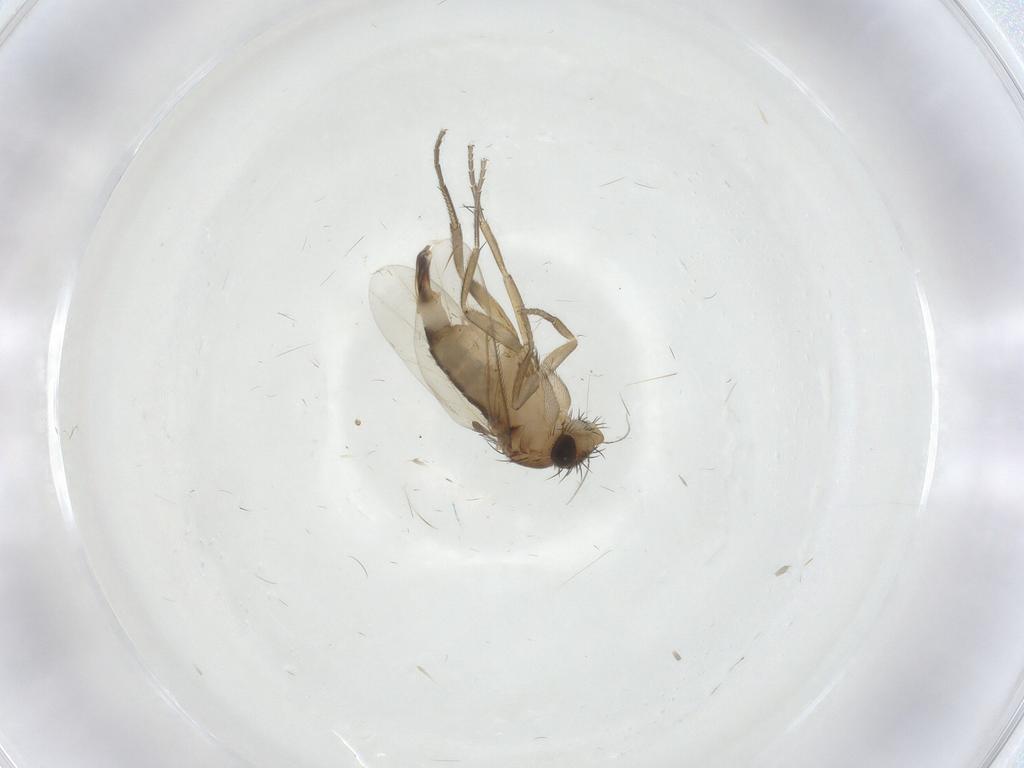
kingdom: Animalia
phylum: Arthropoda
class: Insecta
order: Diptera
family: Phoridae
